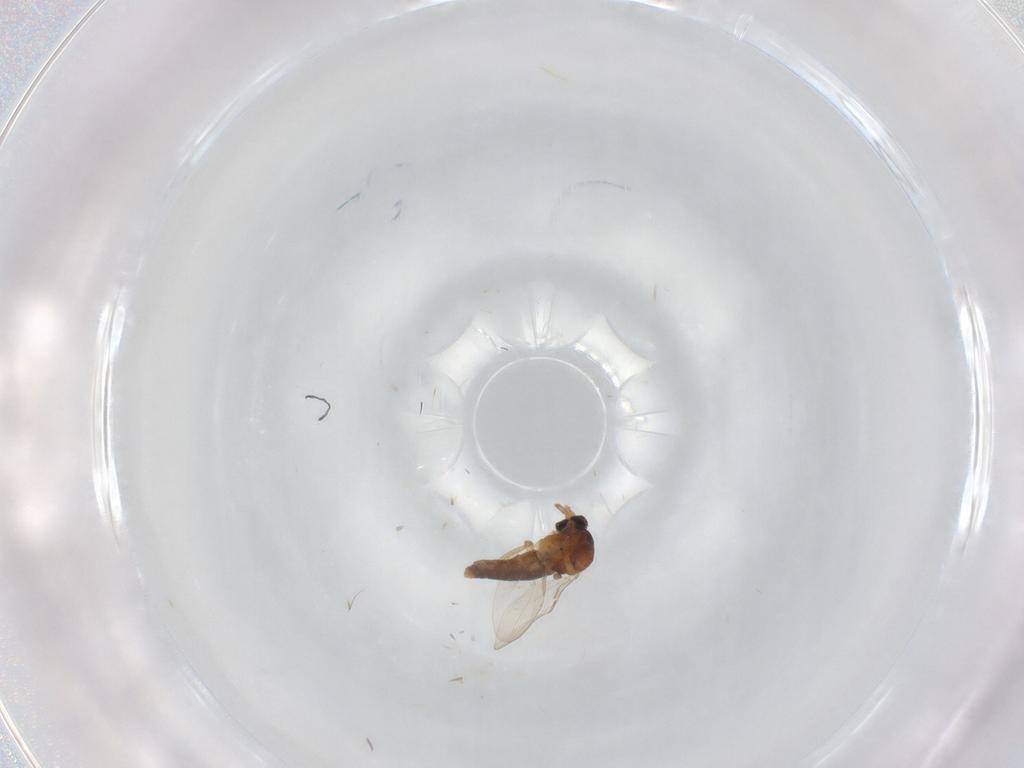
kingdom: Animalia
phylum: Arthropoda
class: Insecta
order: Diptera
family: Ceratopogonidae
